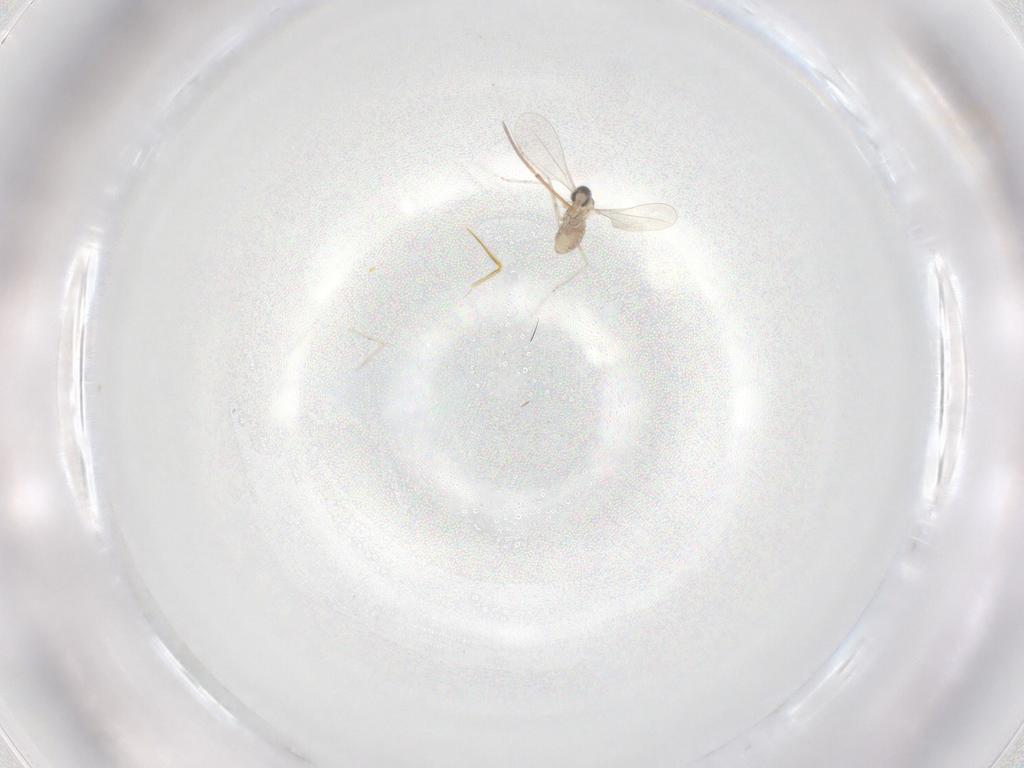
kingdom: Animalia
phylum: Arthropoda
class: Insecta
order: Diptera
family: Cecidomyiidae
